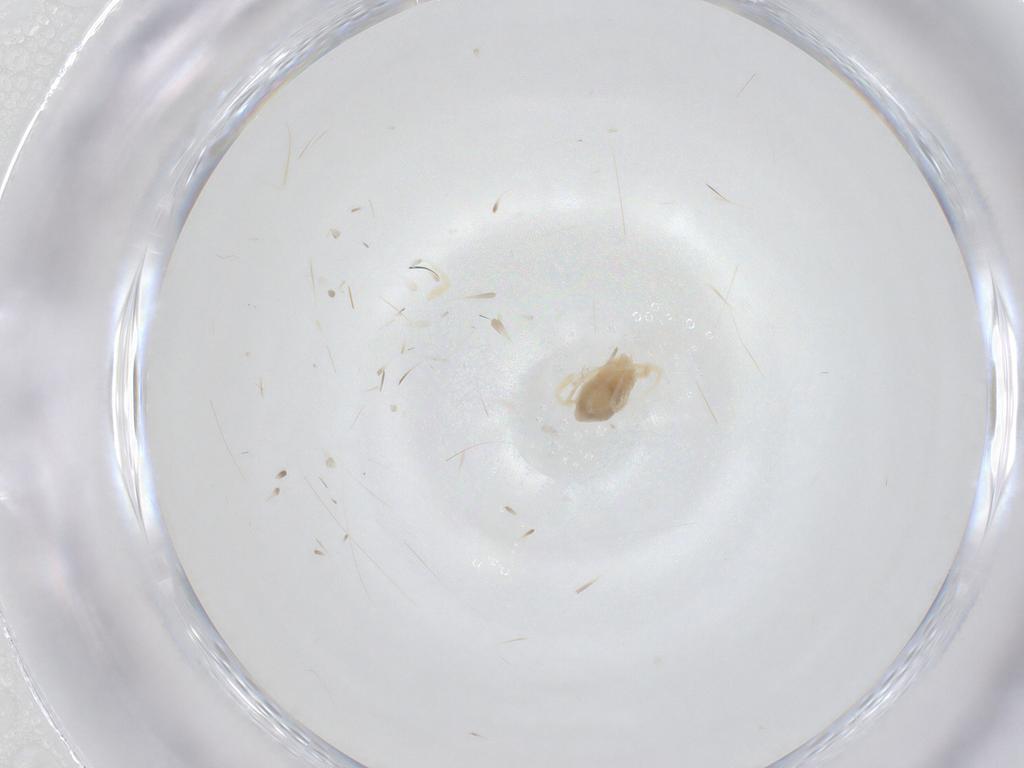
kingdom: Animalia
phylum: Arthropoda
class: Arachnida
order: Trombidiformes
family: Anystidae
